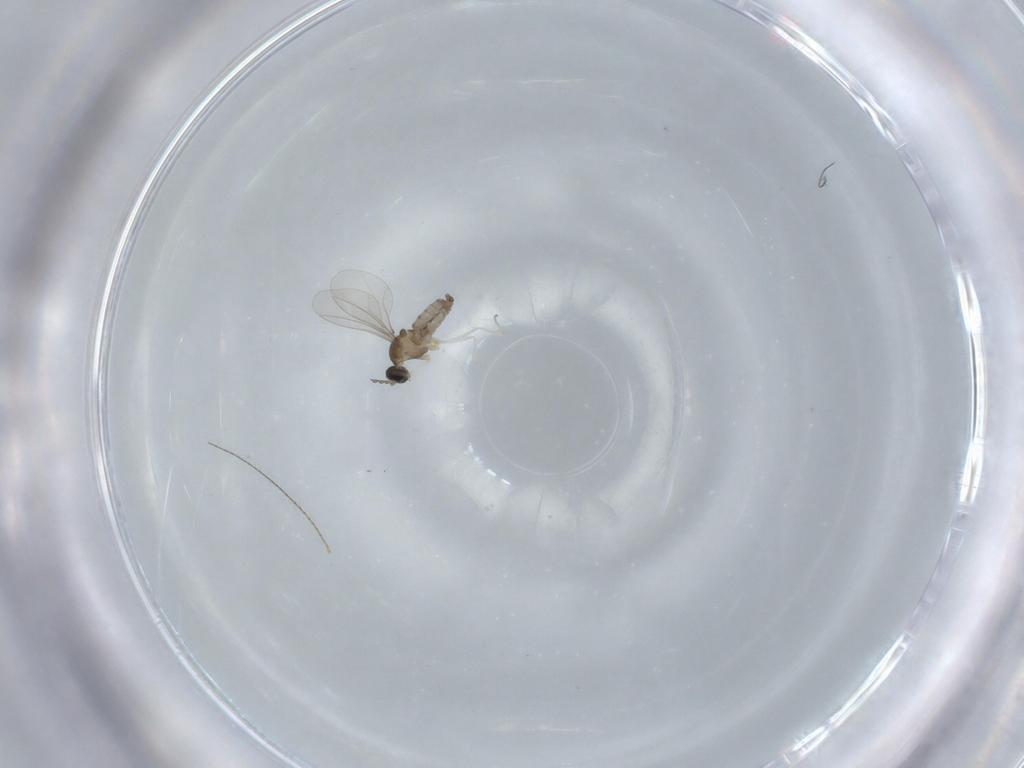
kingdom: Animalia
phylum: Arthropoda
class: Insecta
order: Diptera
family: Cecidomyiidae
